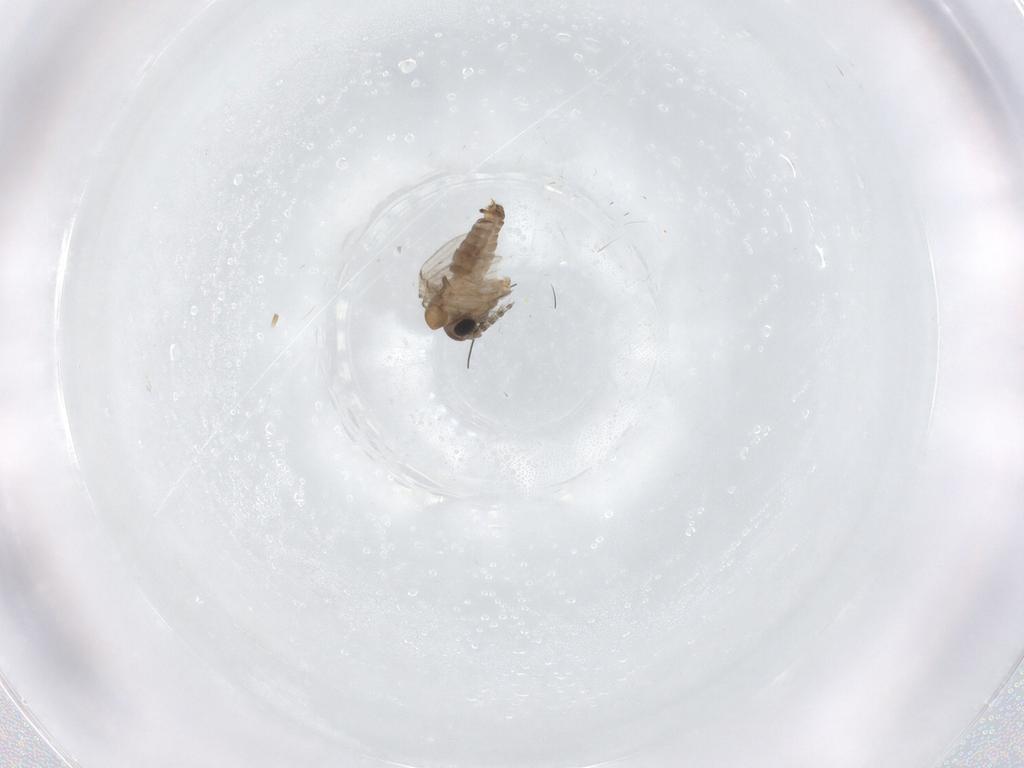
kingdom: Animalia
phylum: Arthropoda
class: Insecta
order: Diptera
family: Psychodidae
